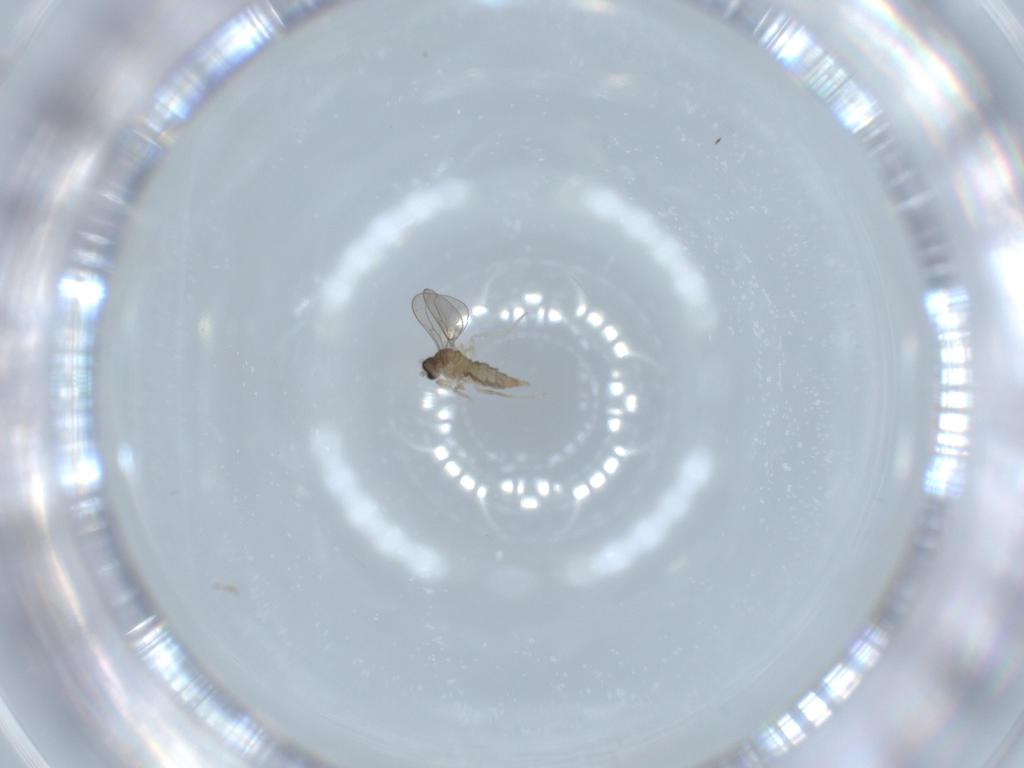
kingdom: Animalia
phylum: Arthropoda
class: Insecta
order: Diptera
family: Cecidomyiidae
